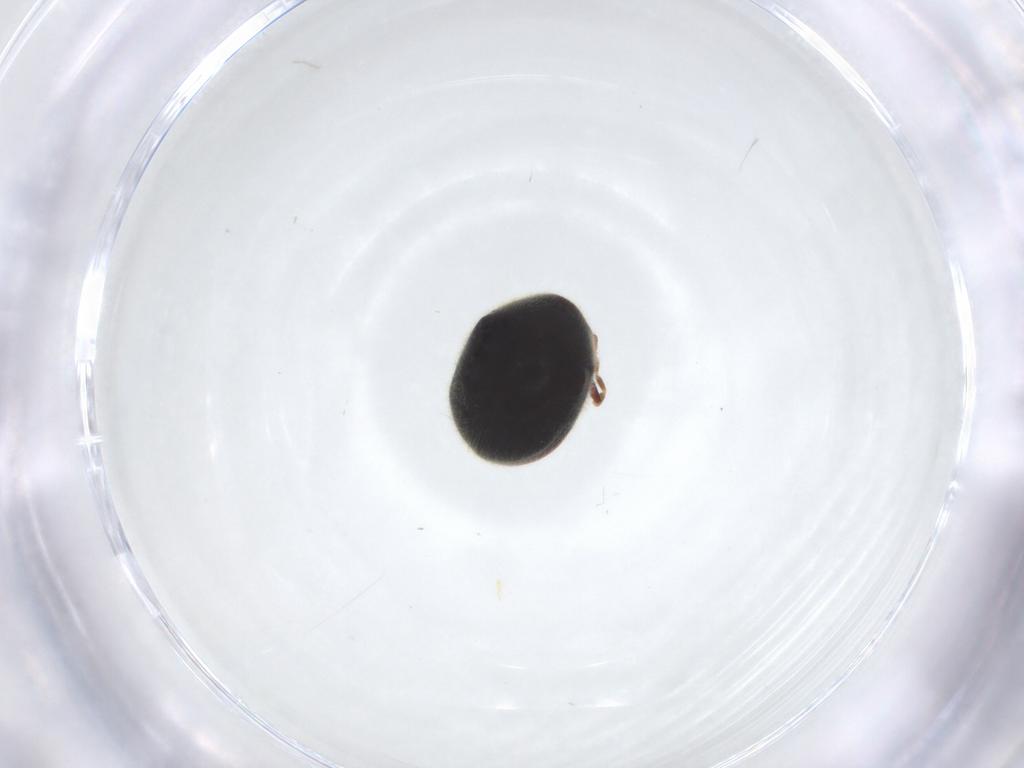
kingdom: Animalia
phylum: Arthropoda
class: Insecta
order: Coleoptera
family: Ptinidae
